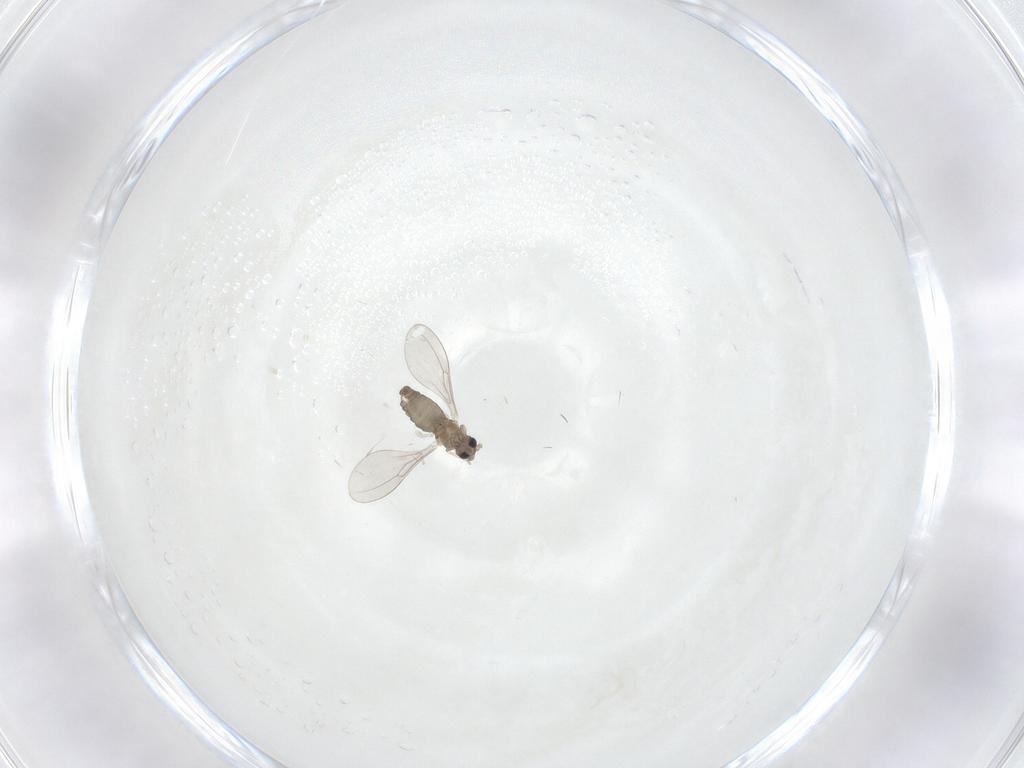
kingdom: Animalia
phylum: Arthropoda
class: Insecta
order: Diptera
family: Cecidomyiidae
